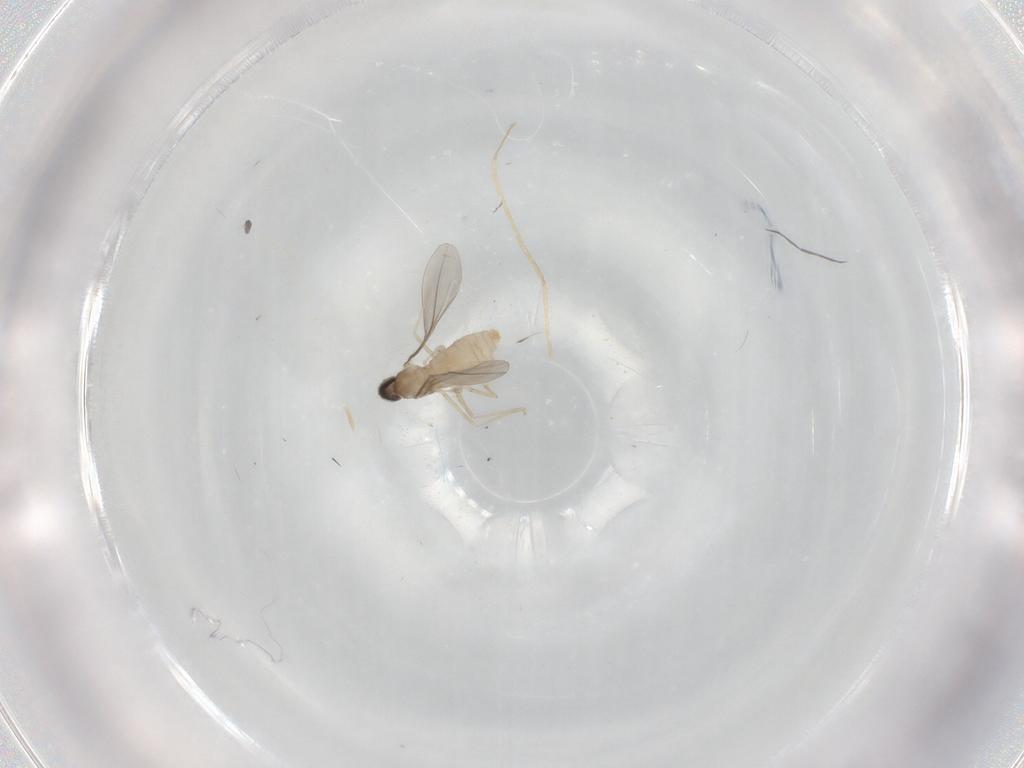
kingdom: Animalia
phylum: Arthropoda
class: Insecta
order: Diptera
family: Cecidomyiidae
